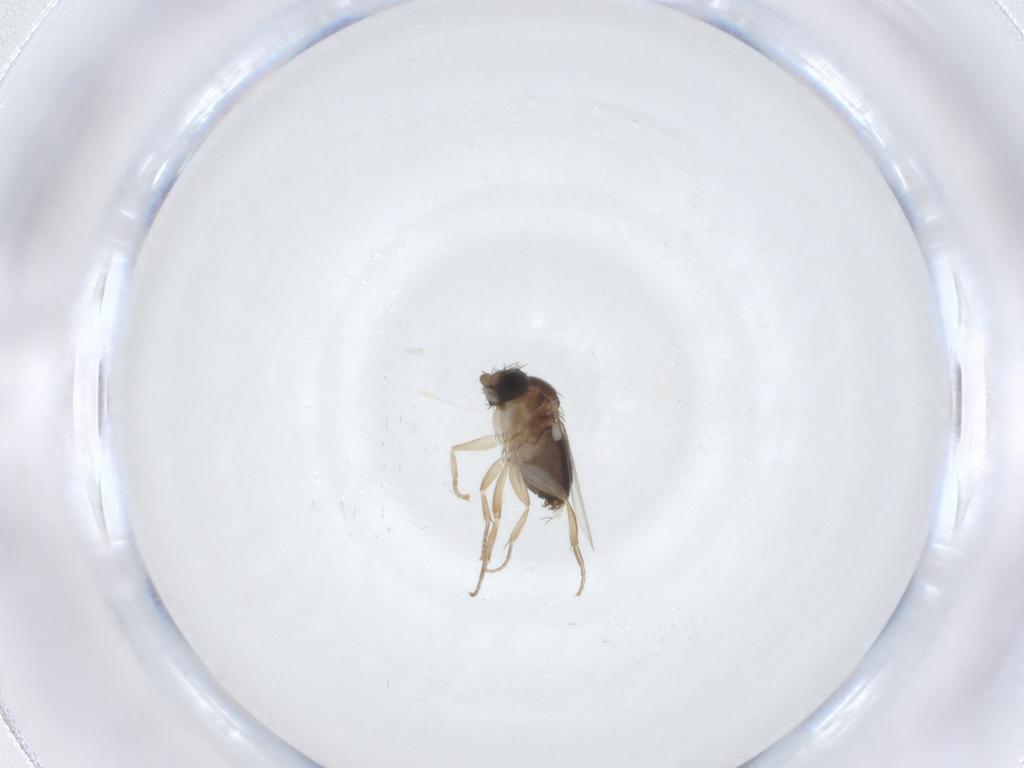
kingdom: Animalia
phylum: Arthropoda
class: Insecta
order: Diptera
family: Phoridae
